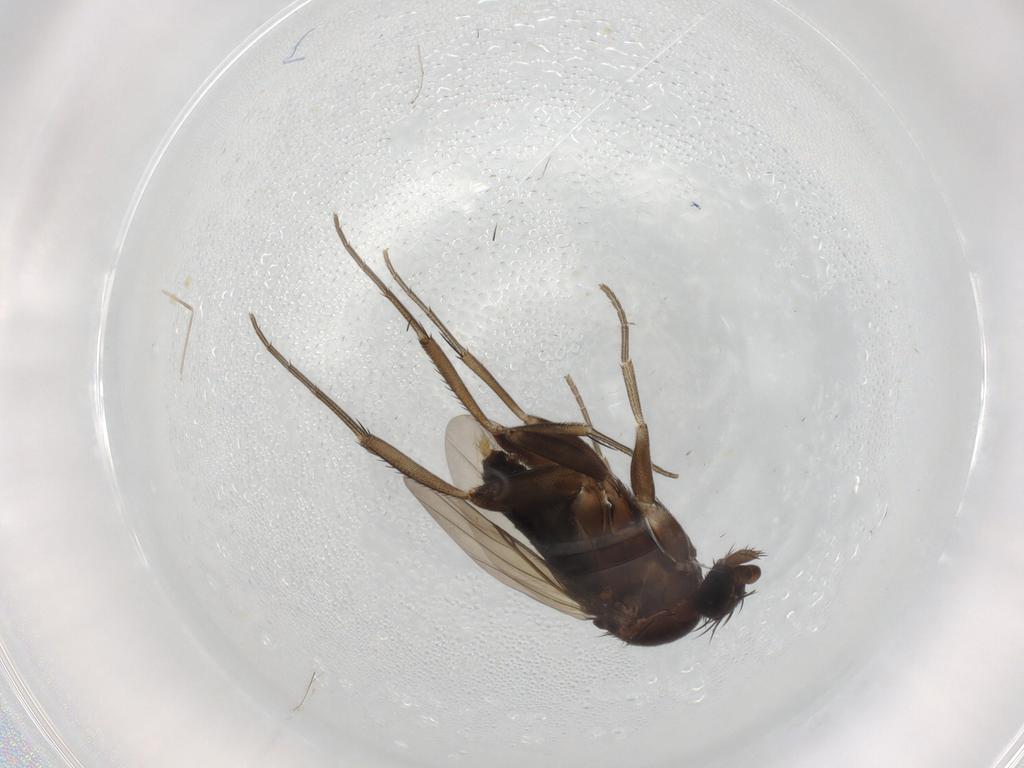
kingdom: Animalia
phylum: Arthropoda
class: Insecta
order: Diptera
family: Phoridae
